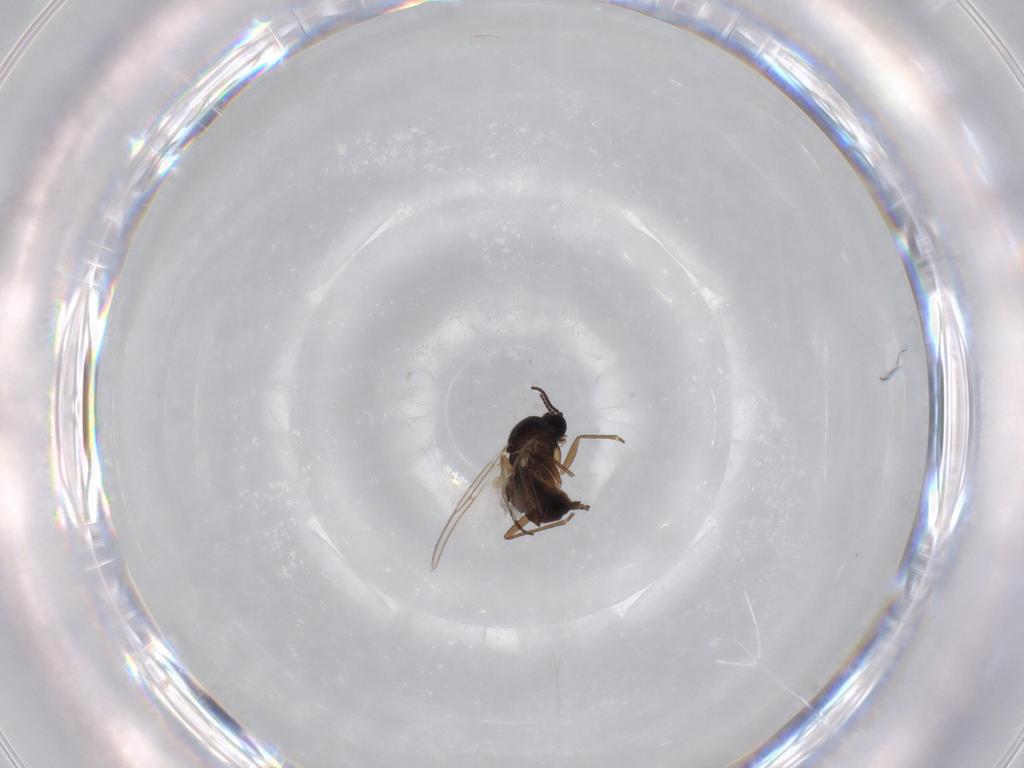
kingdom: Animalia
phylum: Arthropoda
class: Insecta
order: Diptera
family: Sciaridae
